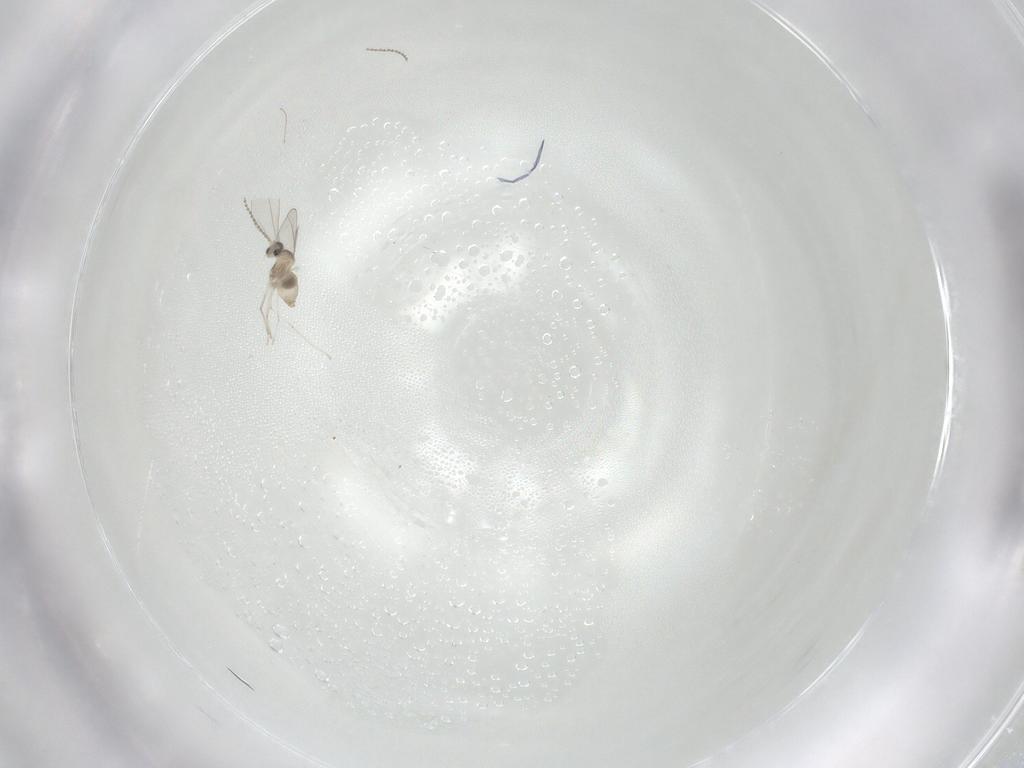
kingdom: Animalia
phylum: Arthropoda
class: Insecta
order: Diptera
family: Cecidomyiidae
